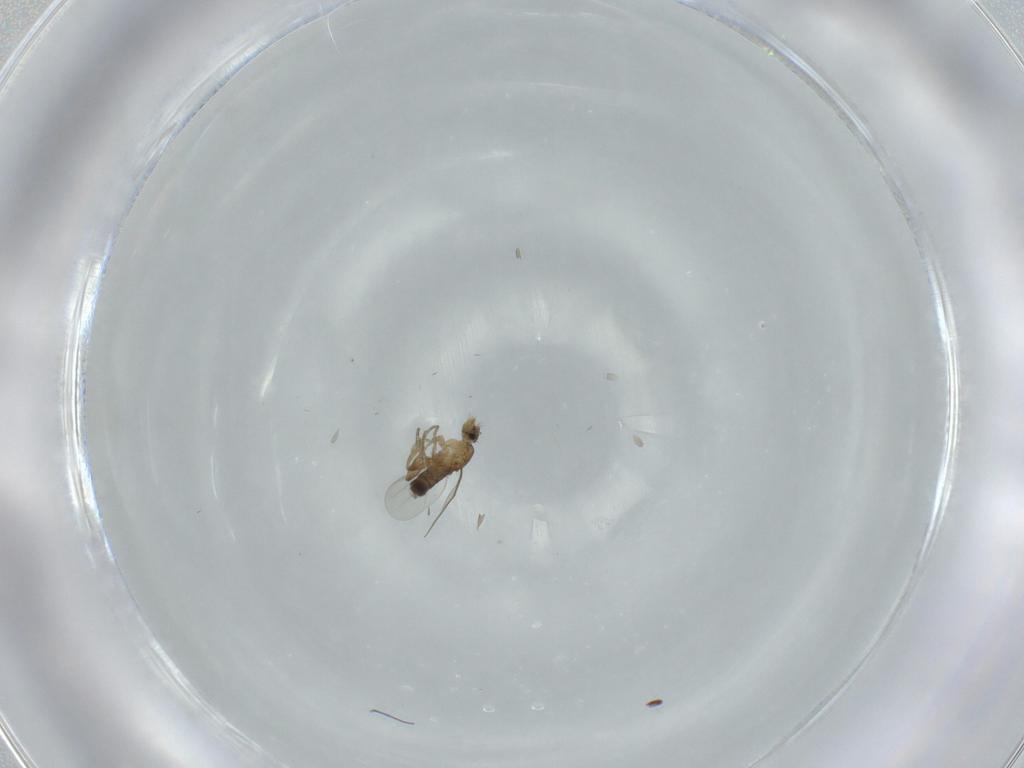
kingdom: Animalia
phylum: Arthropoda
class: Insecta
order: Diptera
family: Phoridae
